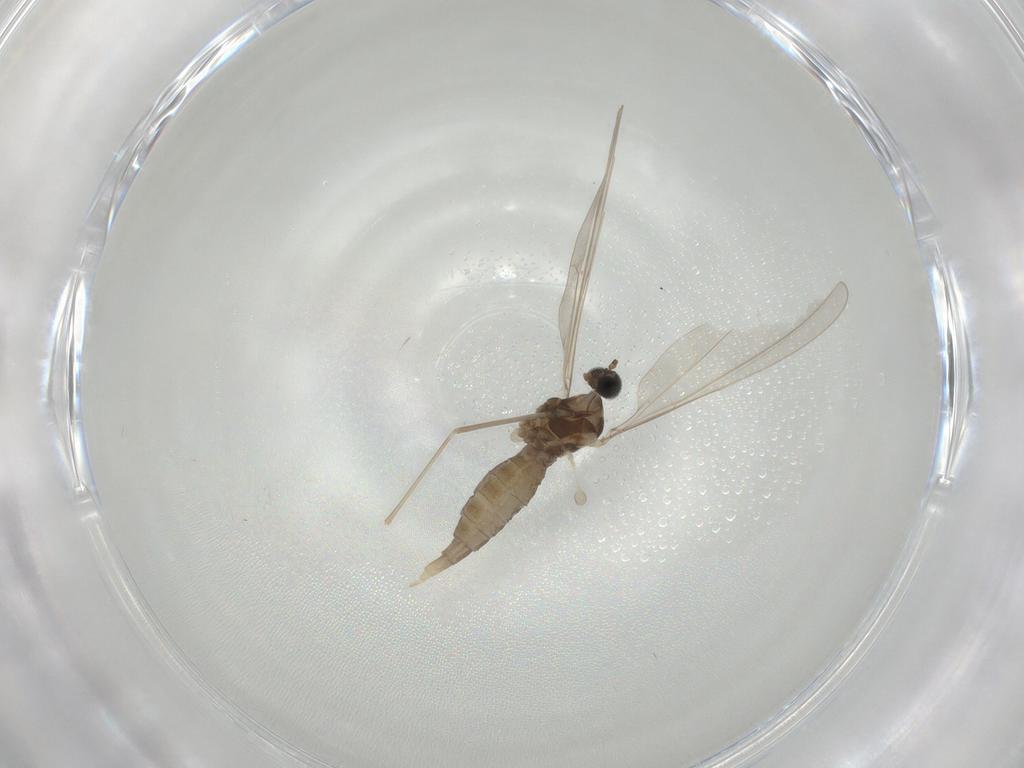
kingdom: Animalia
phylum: Arthropoda
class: Insecta
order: Diptera
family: Cecidomyiidae
